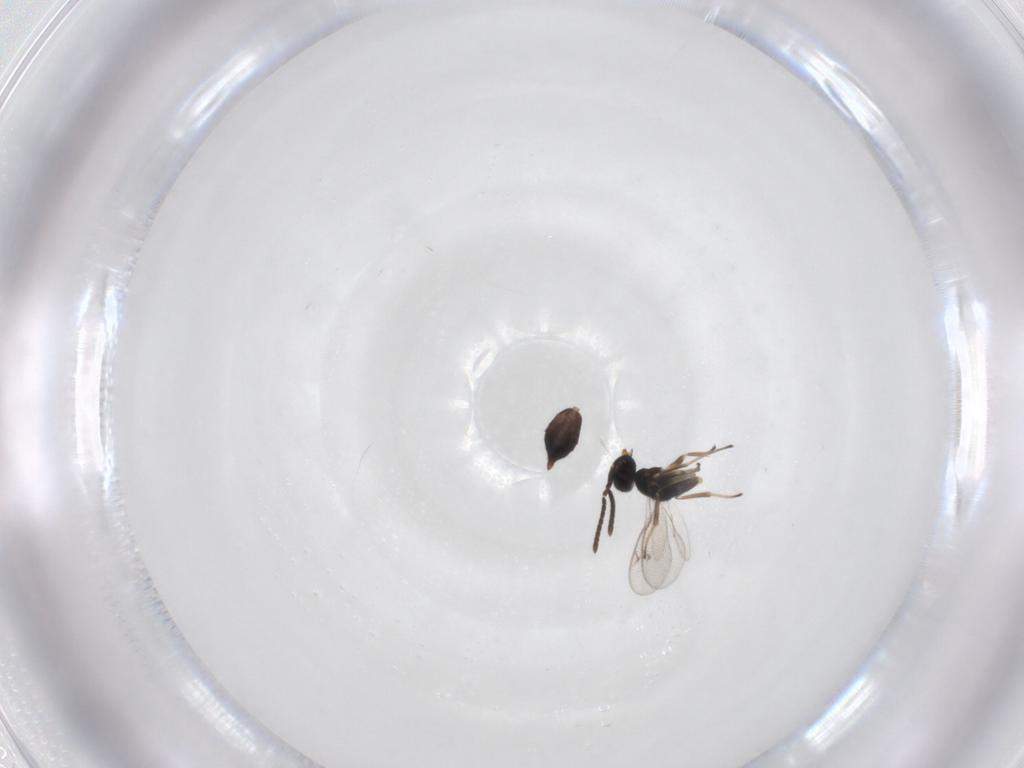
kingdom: Animalia
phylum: Arthropoda
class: Insecta
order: Hymenoptera
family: Eupelmidae
